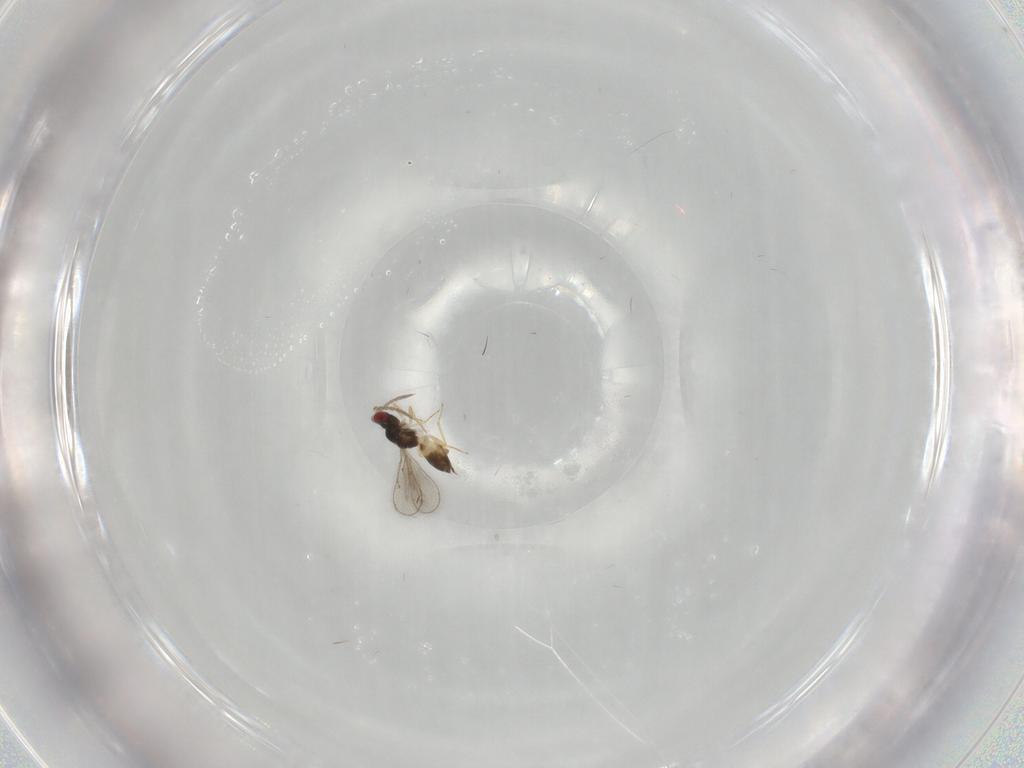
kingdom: Animalia
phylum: Arthropoda
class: Insecta
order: Hymenoptera
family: Eulophidae
